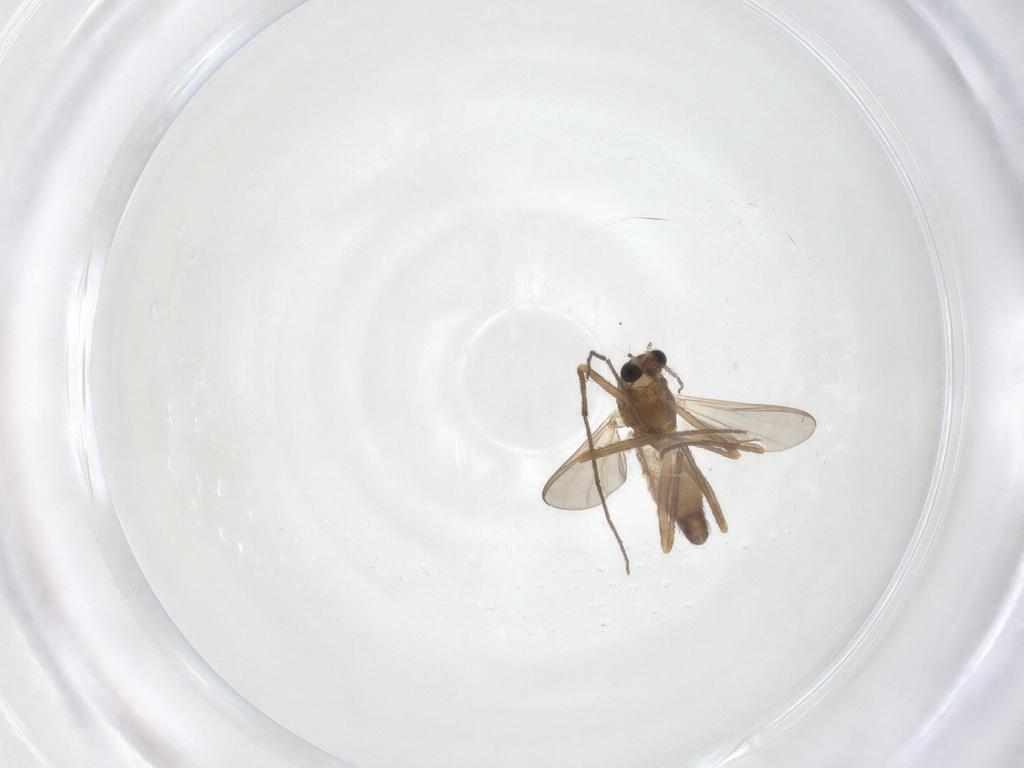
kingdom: Animalia
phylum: Arthropoda
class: Insecta
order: Diptera
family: Chironomidae
